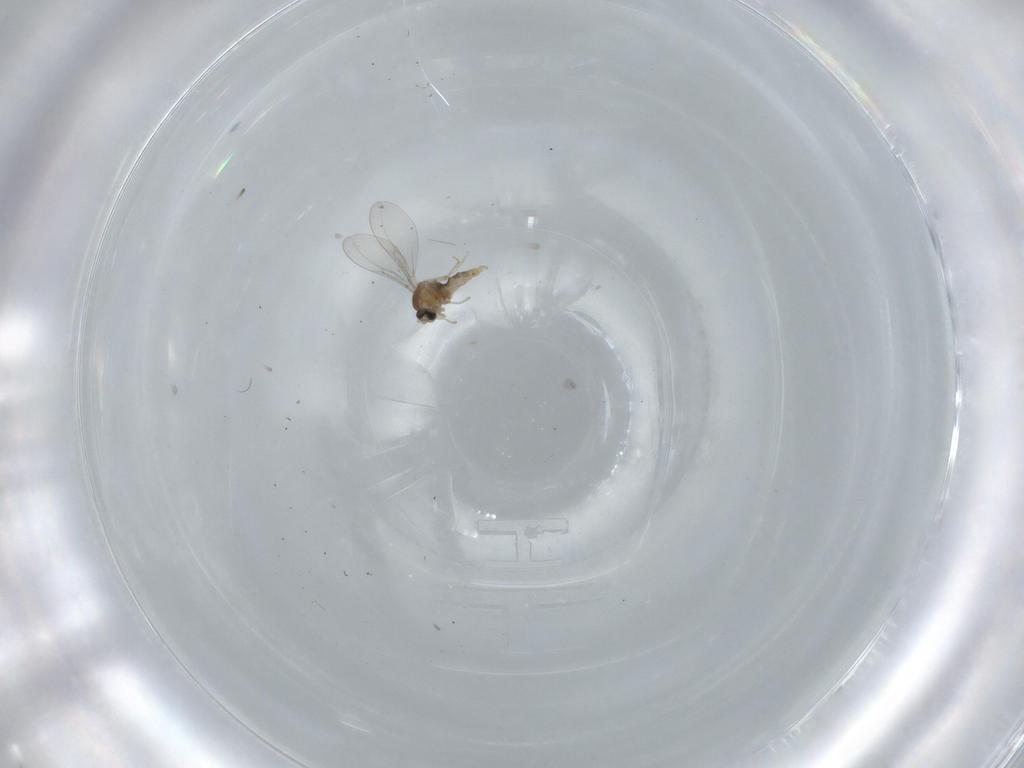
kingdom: Animalia
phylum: Arthropoda
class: Insecta
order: Diptera
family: Cecidomyiidae
